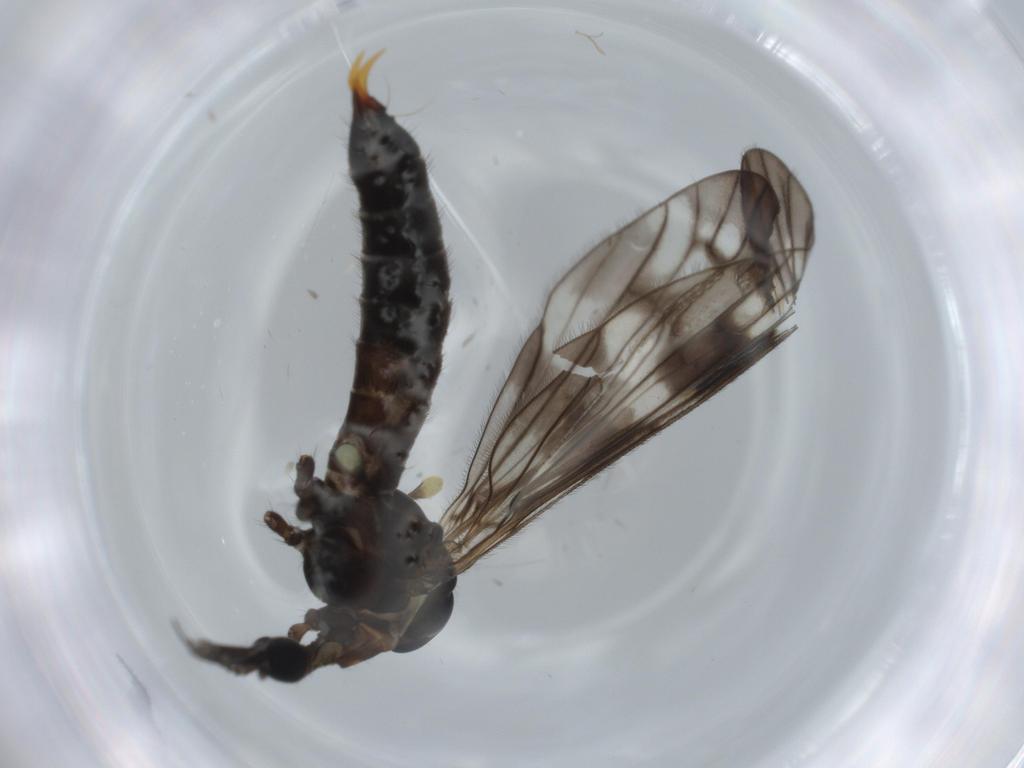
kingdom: Animalia
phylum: Arthropoda
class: Insecta
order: Diptera
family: Limoniidae
